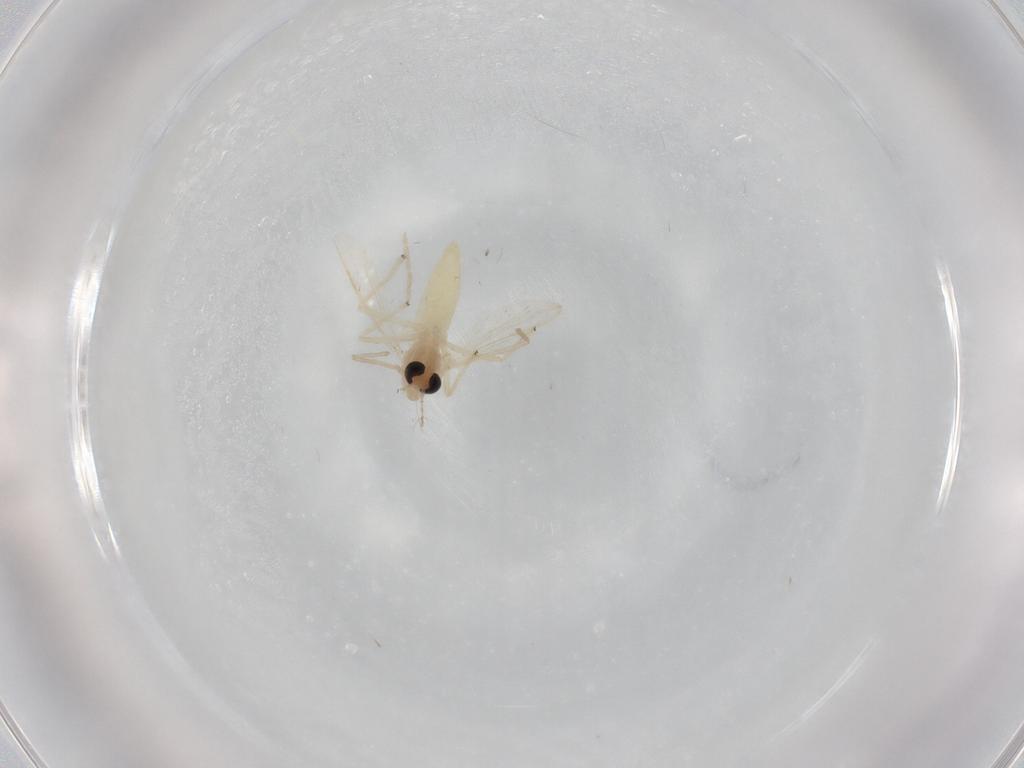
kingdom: Animalia
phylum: Arthropoda
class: Insecta
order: Diptera
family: Chironomidae
